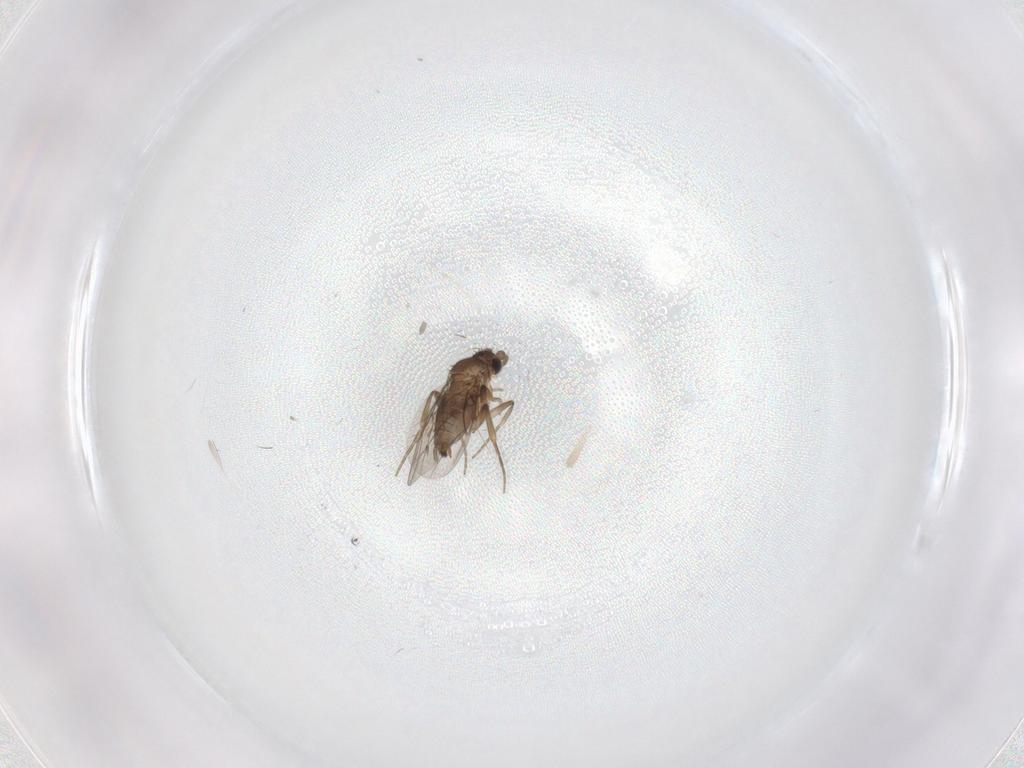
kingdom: Animalia
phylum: Arthropoda
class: Insecta
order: Diptera
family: Phoridae
